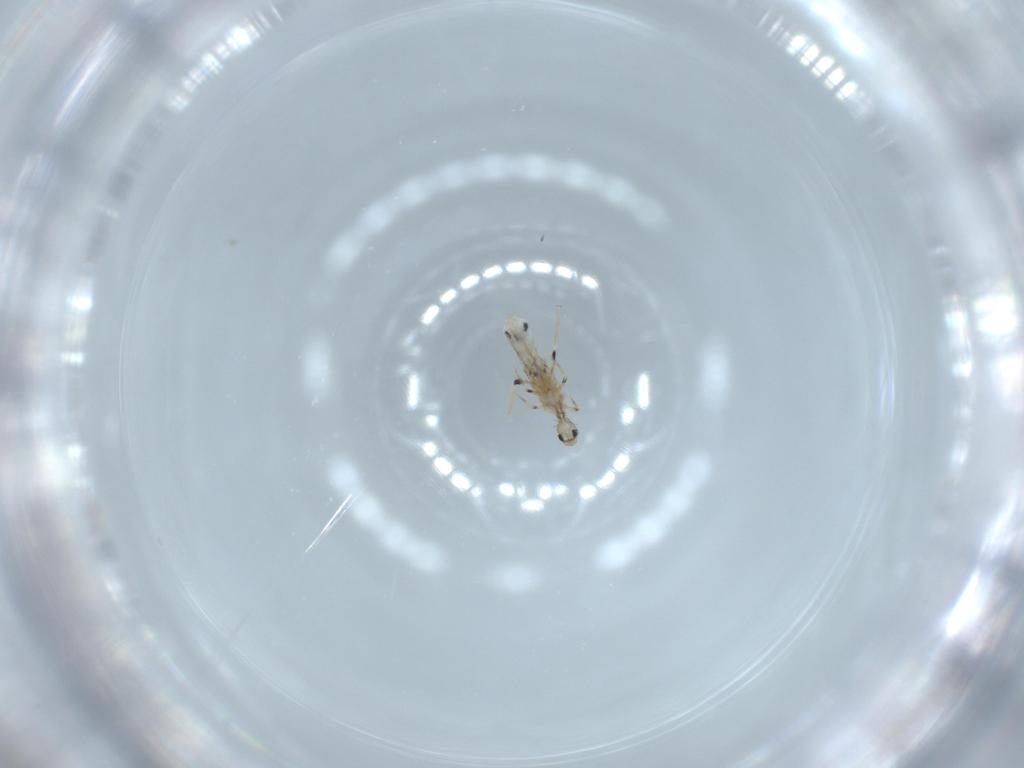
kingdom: Animalia
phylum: Arthropoda
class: Collembola
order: Entomobryomorpha
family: Entomobryidae
